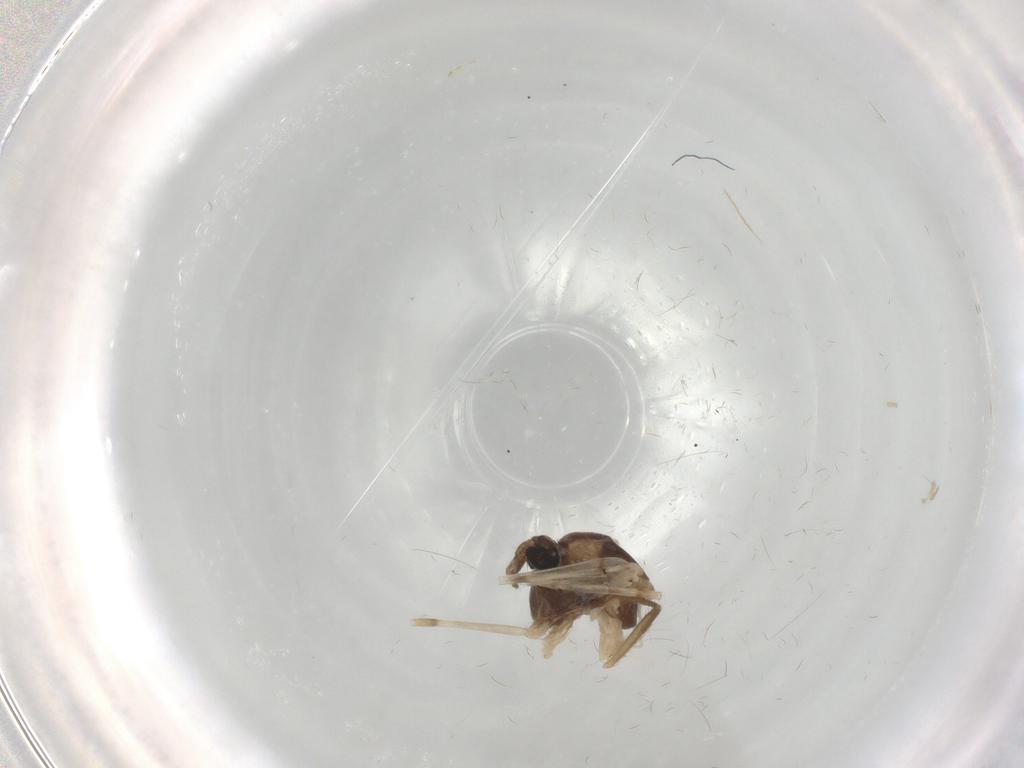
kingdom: Animalia
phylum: Arthropoda
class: Insecta
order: Diptera
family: Chironomidae
